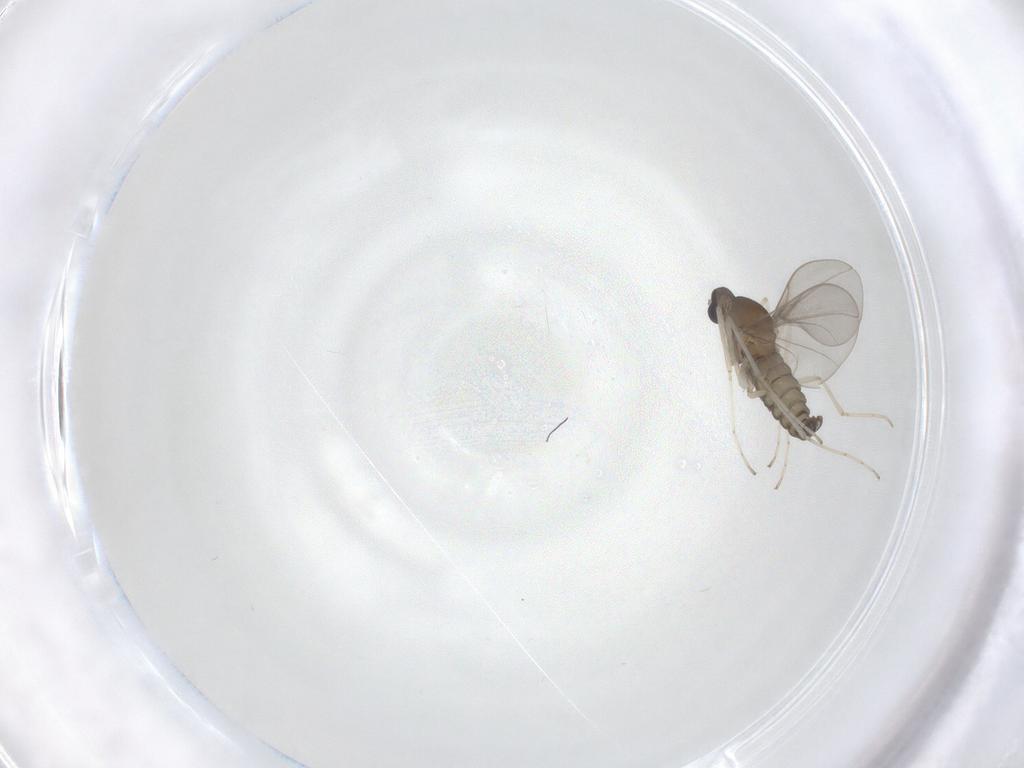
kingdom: Animalia
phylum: Arthropoda
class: Insecta
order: Diptera
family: Cecidomyiidae
